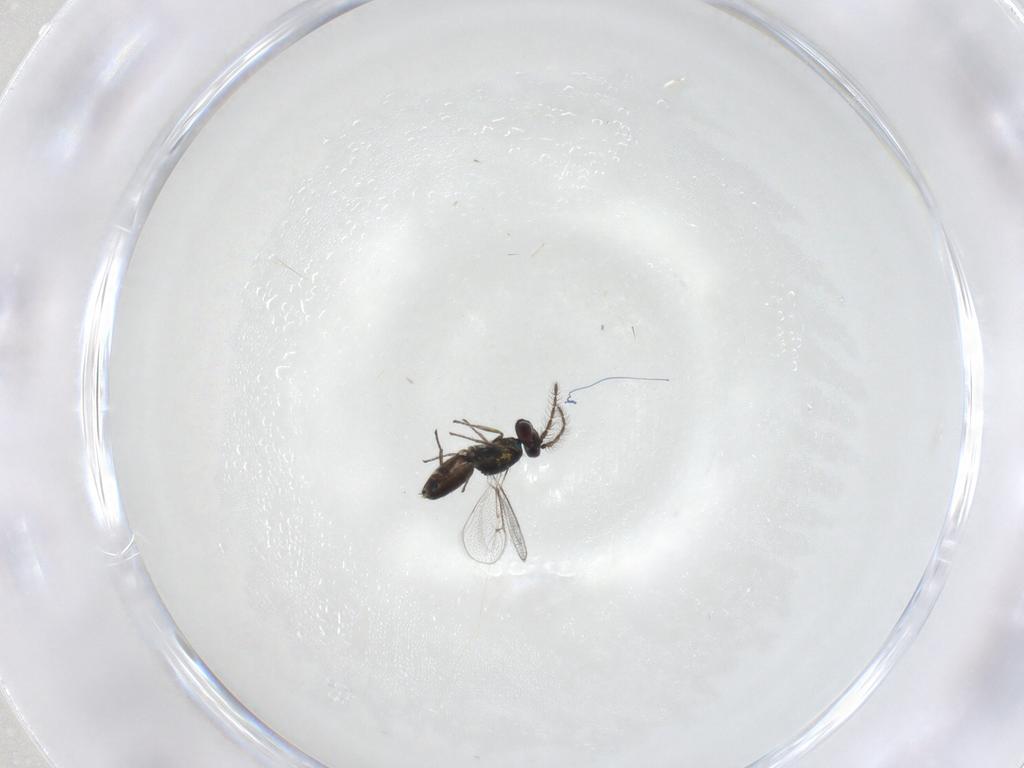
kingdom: Animalia
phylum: Arthropoda
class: Insecta
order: Hymenoptera
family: Eulophidae
